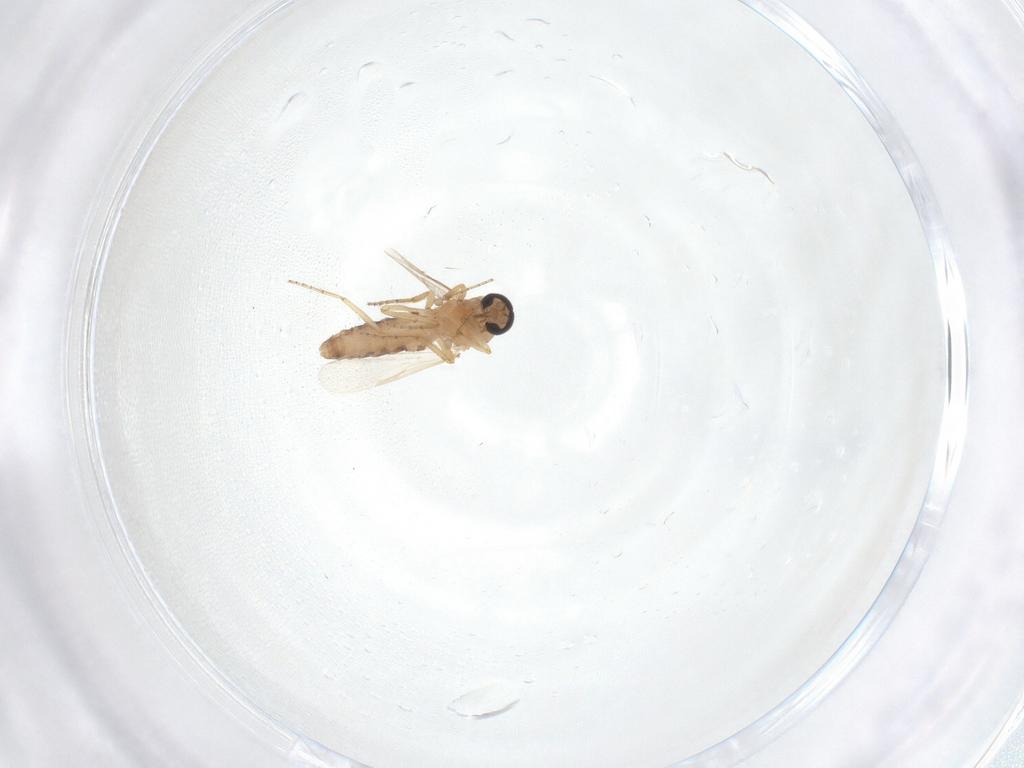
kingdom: Animalia
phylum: Arthropoda
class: Insecta
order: Diptera
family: Ceratopogonidae
